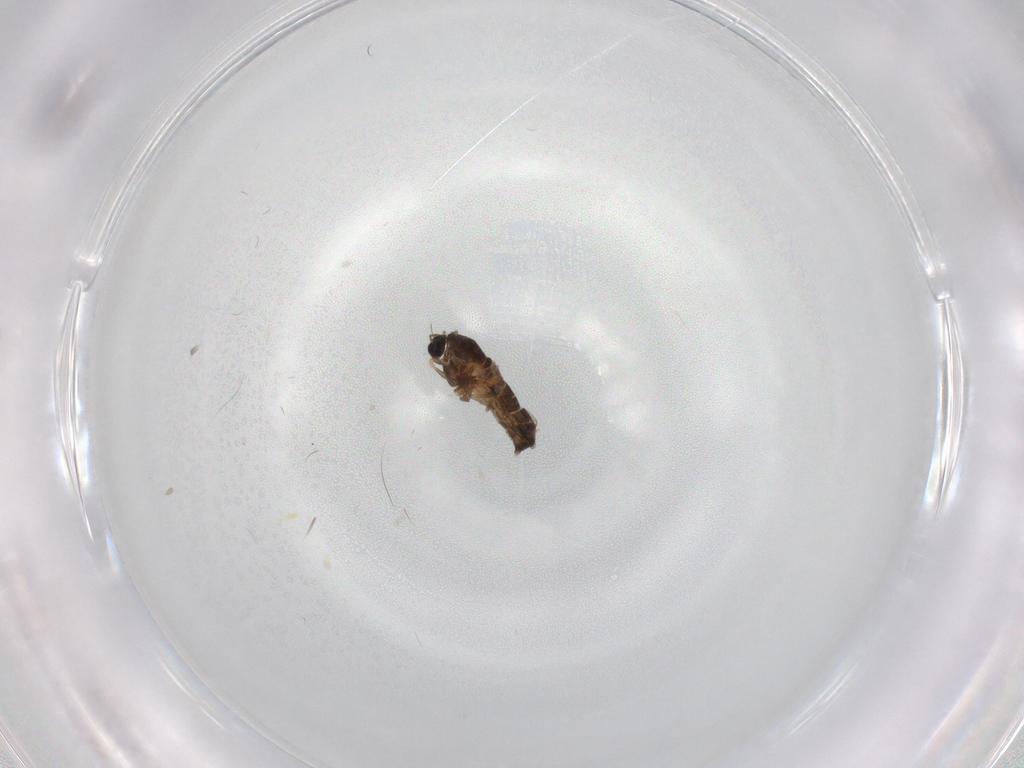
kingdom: Animalia
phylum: Arthropoda
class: Insecta
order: Diptera
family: Chironomidae
